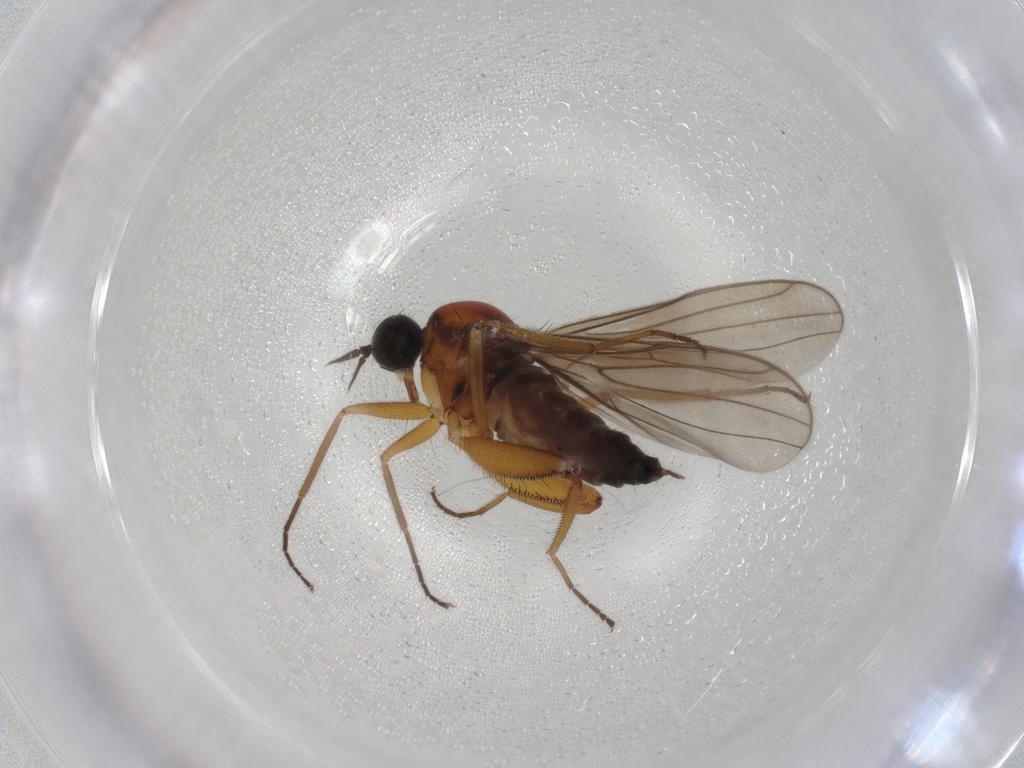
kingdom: Animalia
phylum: Arthropoda
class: Insecta
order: Diptera
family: Hybotidae
